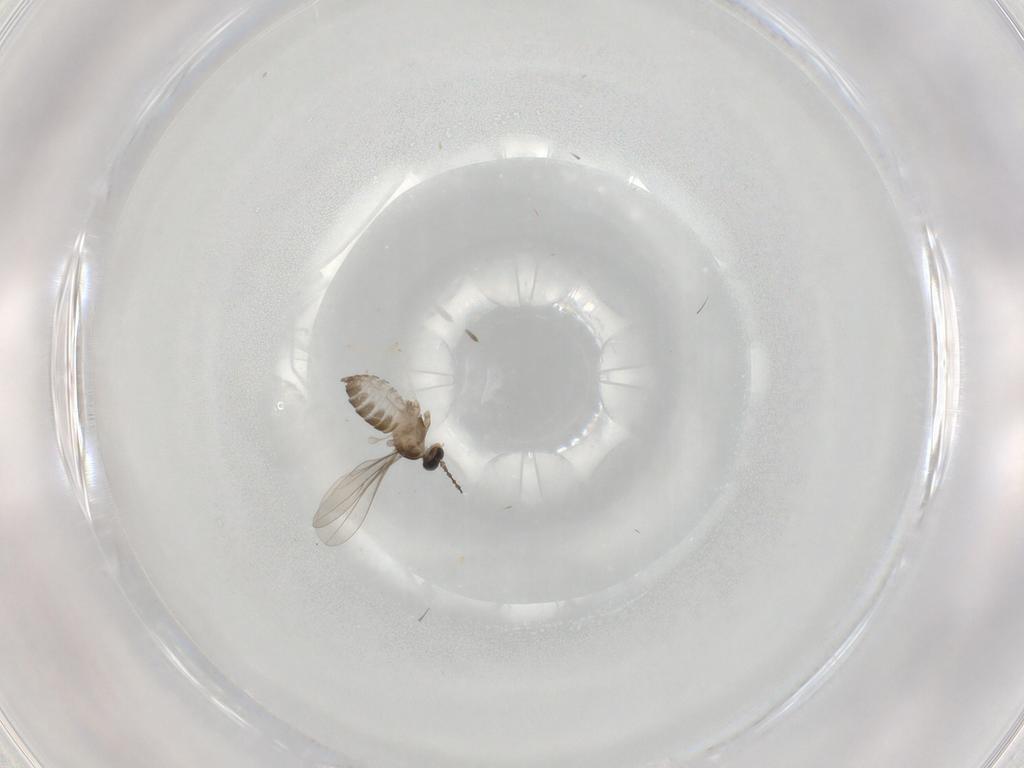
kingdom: Animalia
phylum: Arthropoda
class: Insecta
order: Diptera
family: Cecidomyiidae
